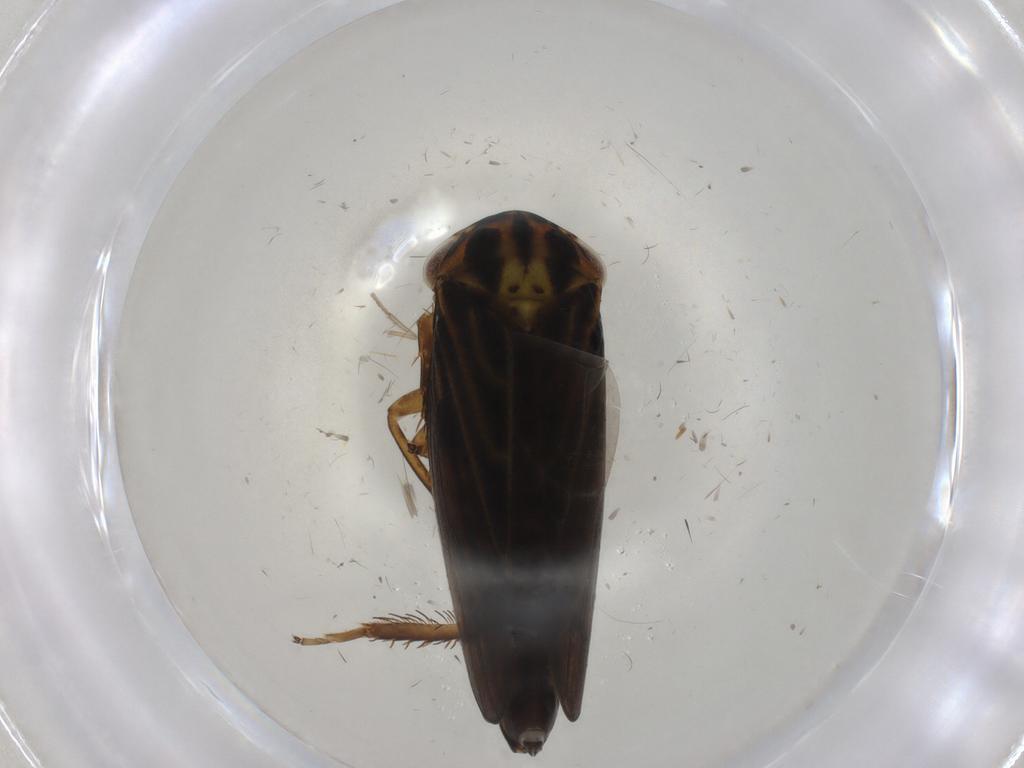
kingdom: Animalia
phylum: Arthropoda
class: Insecta
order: Hemiptera
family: Cicadellidae
